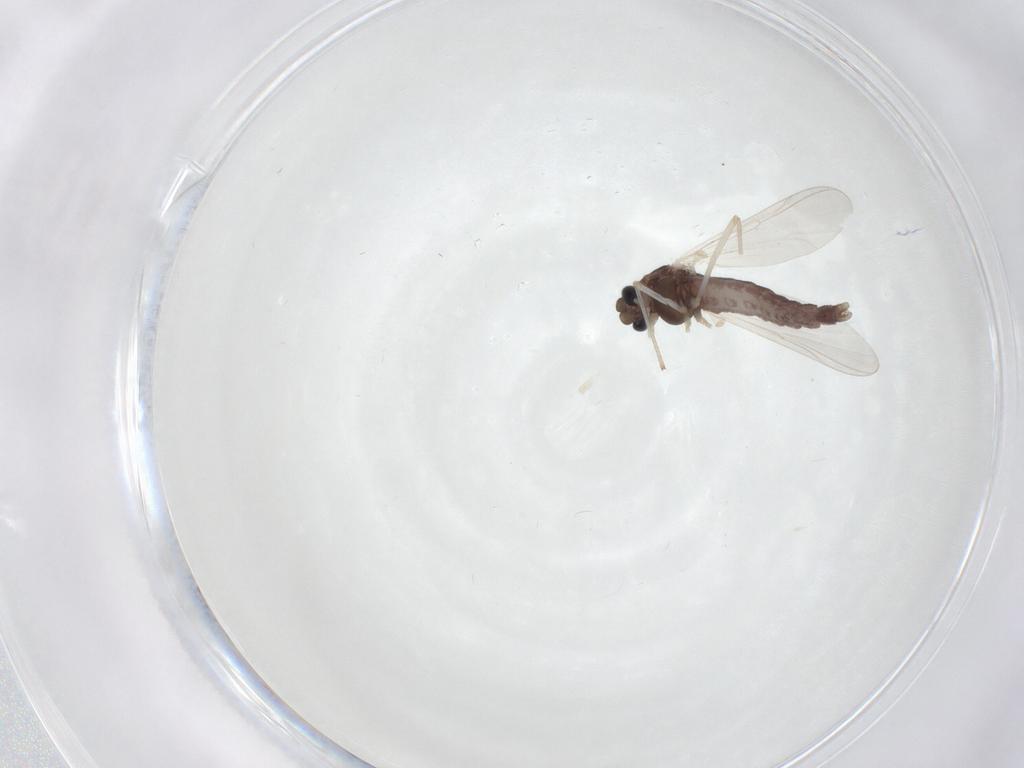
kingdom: Animalia
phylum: Arthropoda
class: Insecta
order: Diptera
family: Chironomidae
